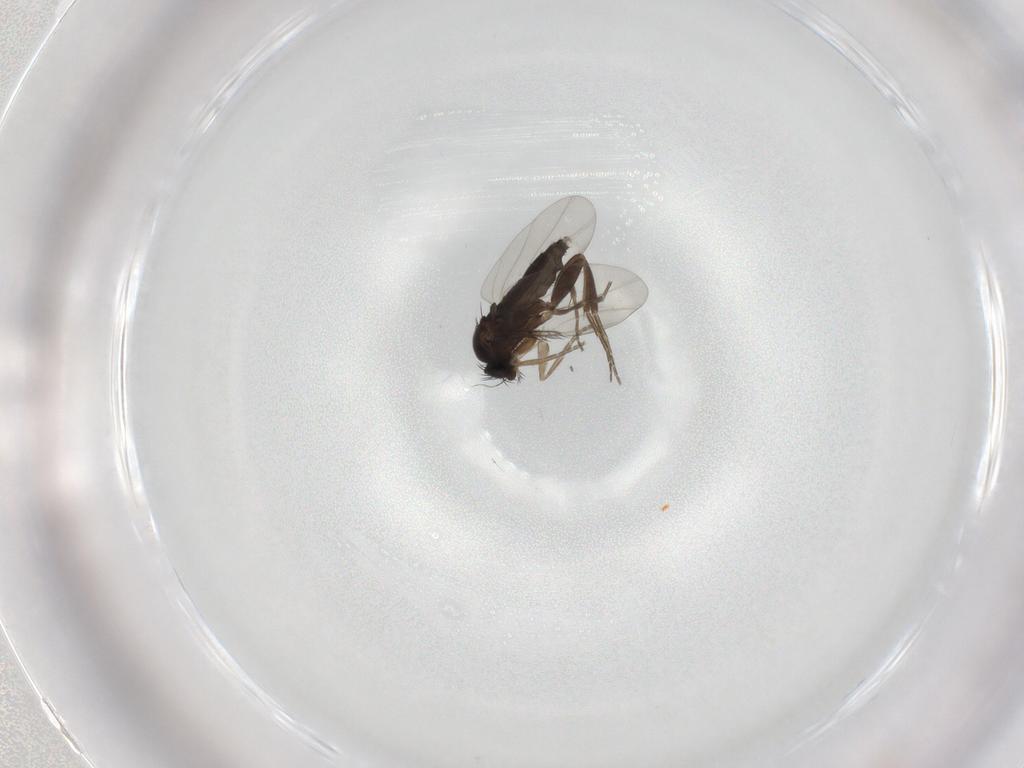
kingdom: Animalia
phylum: Arthropoda
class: Insecta
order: Diptera
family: Phoridae
